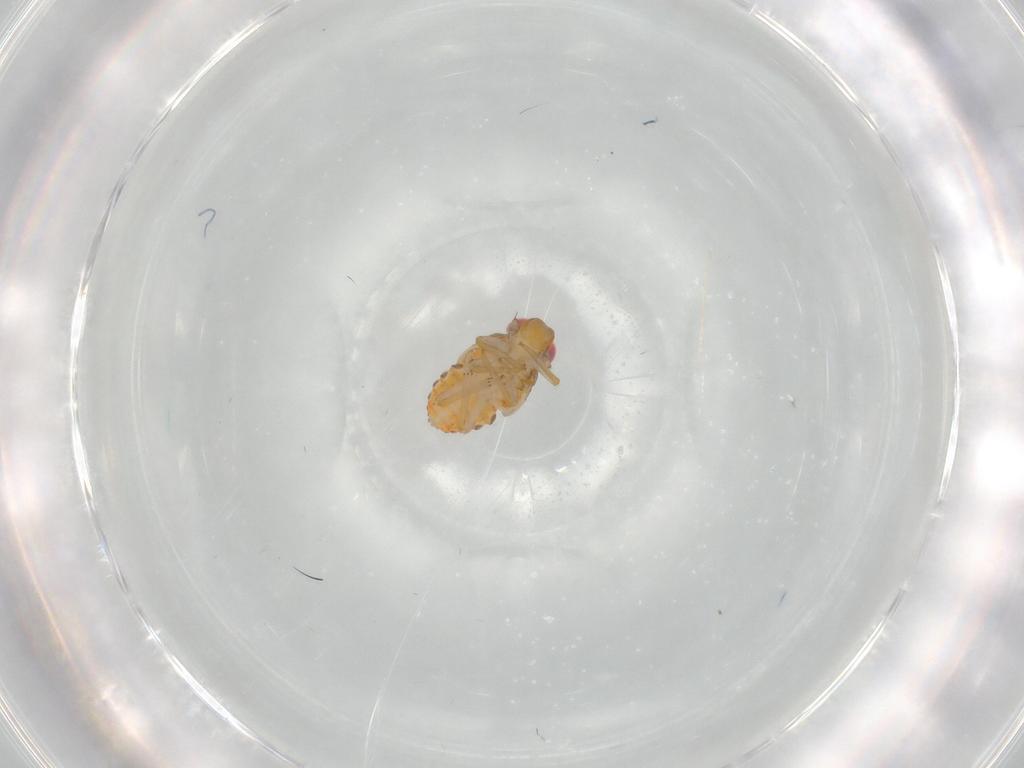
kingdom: Animalia
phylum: Arthropoda
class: Insecta
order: Hemiptera
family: Issidae
